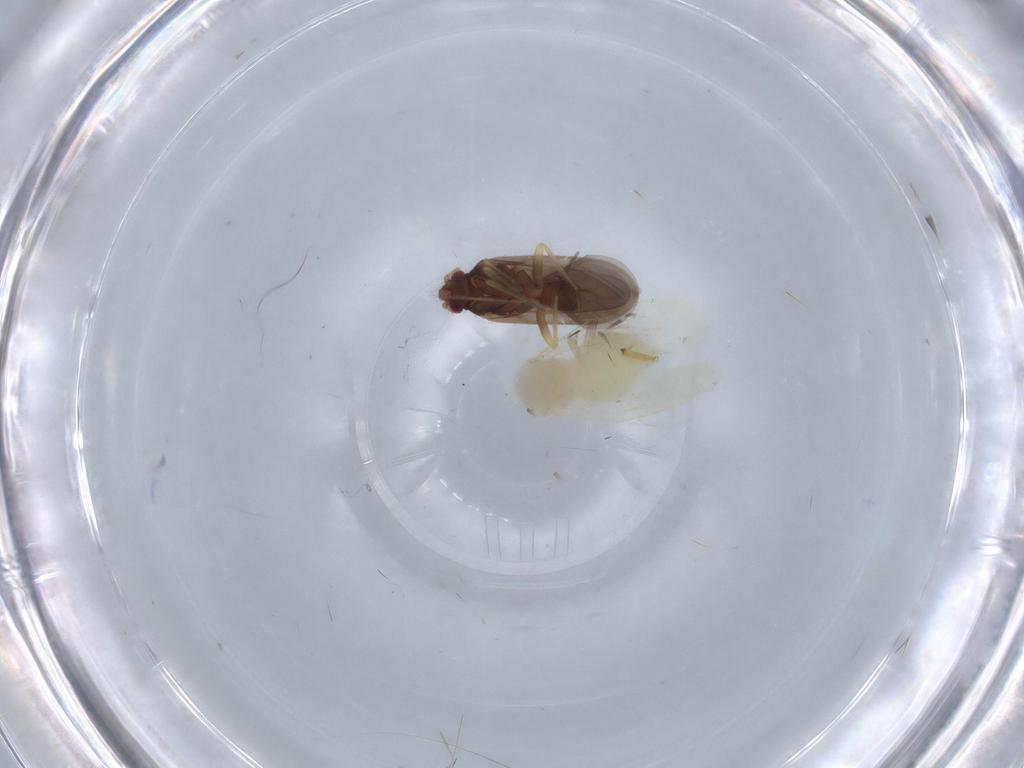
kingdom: Animalia
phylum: Arthropoda
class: Insecta
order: Hemiptera
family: Ceratocombidae
